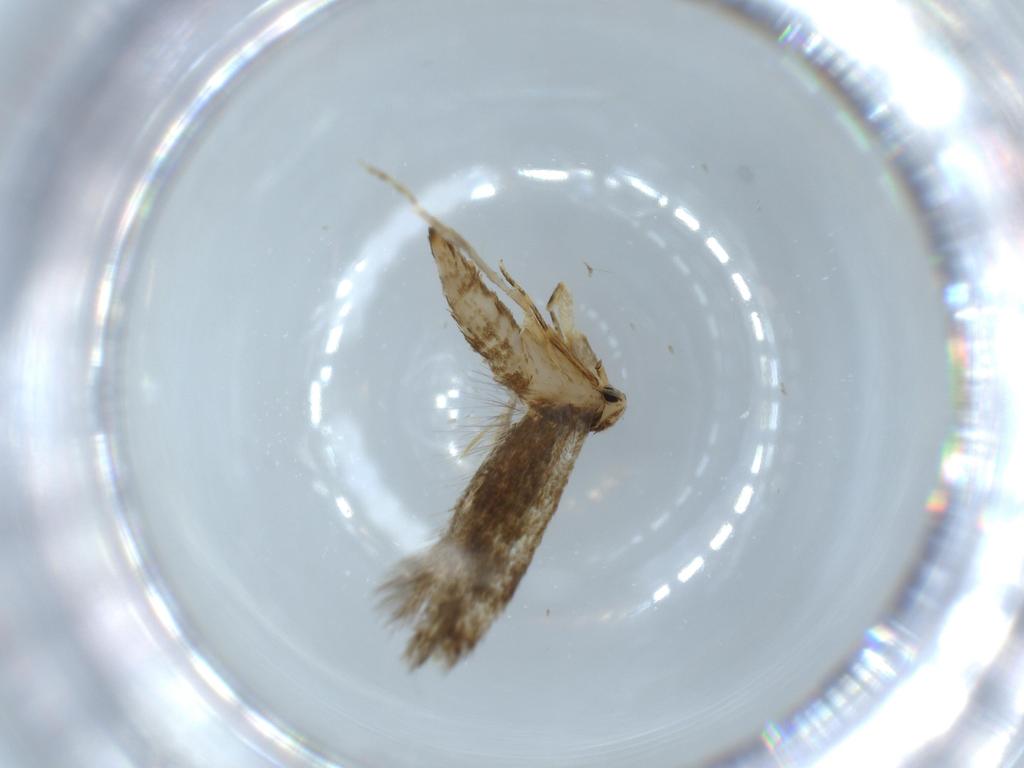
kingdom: Animalia
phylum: Arthropoda
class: Insecta
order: Lepidoptera
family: Tineidae
